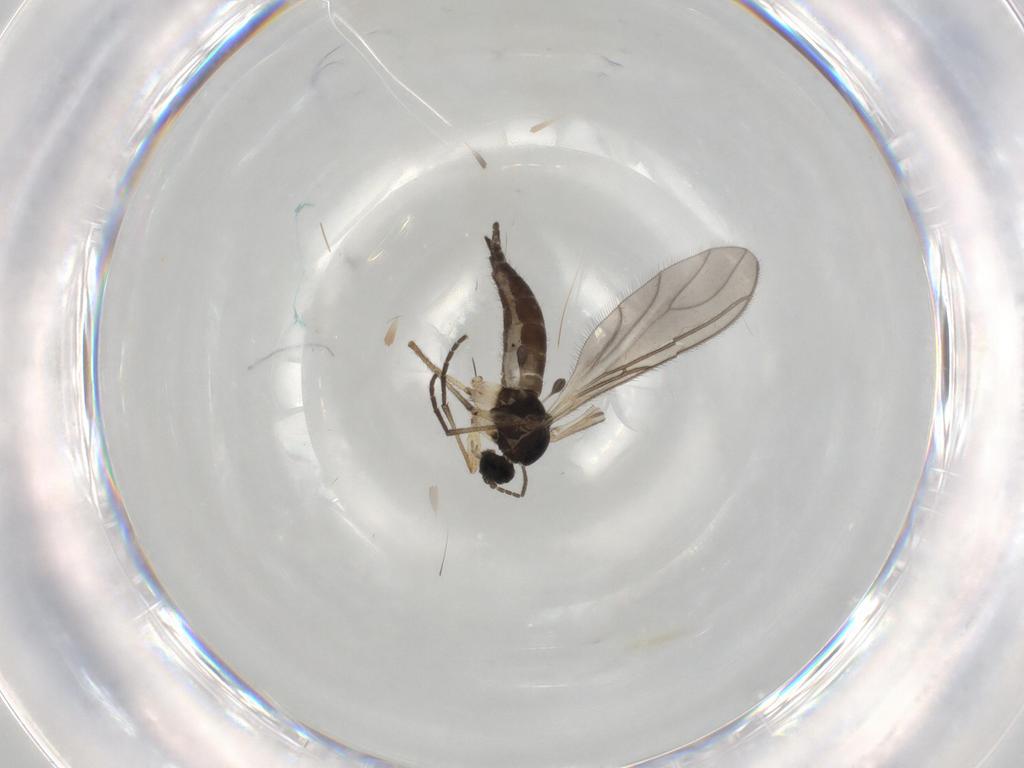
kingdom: Animalia
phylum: Arthropoda
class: Insecta
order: Diptera
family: Sciaridae
